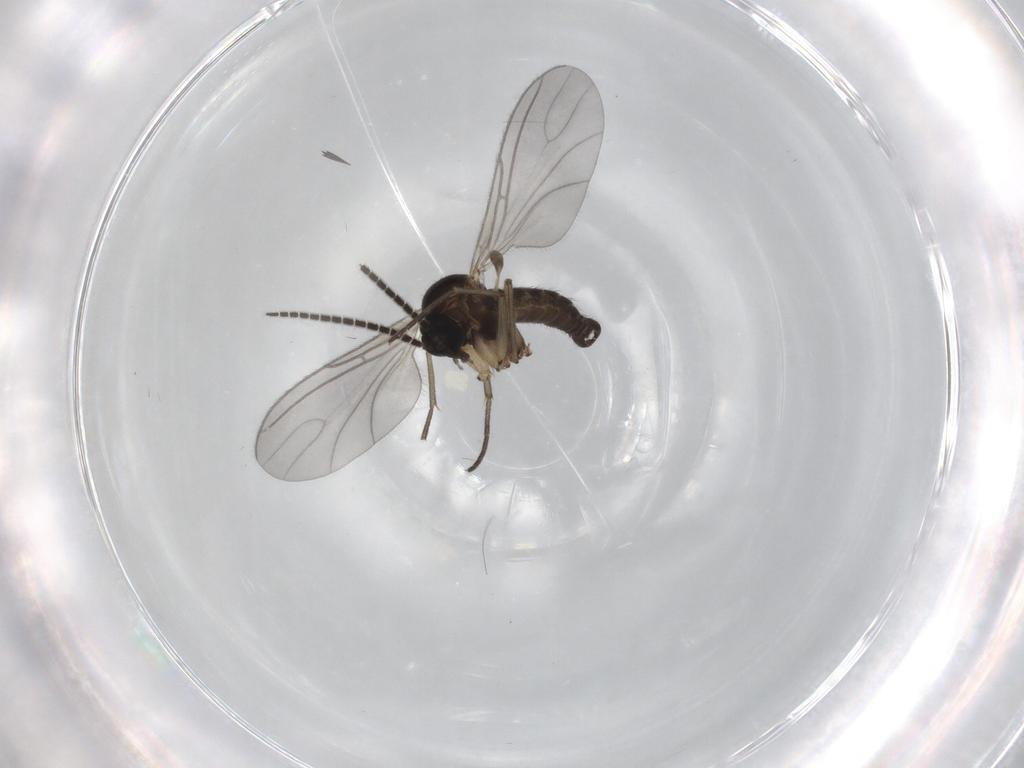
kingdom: Animalia
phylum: Arthropoda
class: Insecta
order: Diptera
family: Sciaridae
